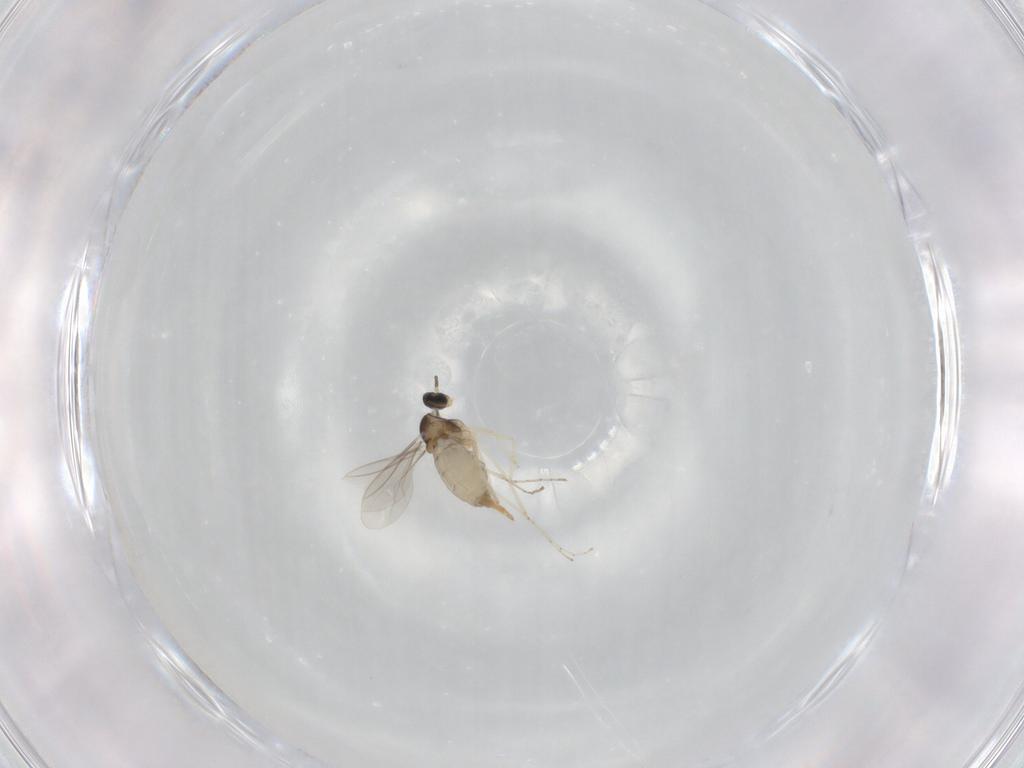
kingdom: Animalia
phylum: Arthropoda
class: Insecta
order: Diptera
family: Cecidomyiidae
